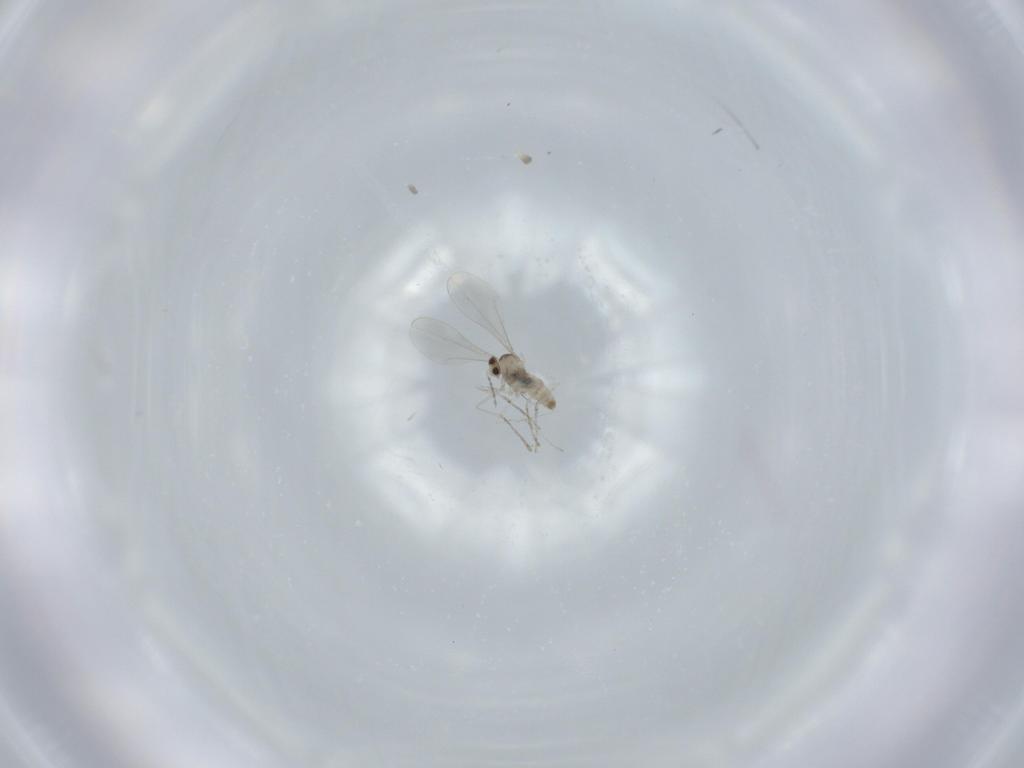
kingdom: Animalia
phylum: Arthropoda
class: Insecta
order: Diptera
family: Cecidomyiidae
